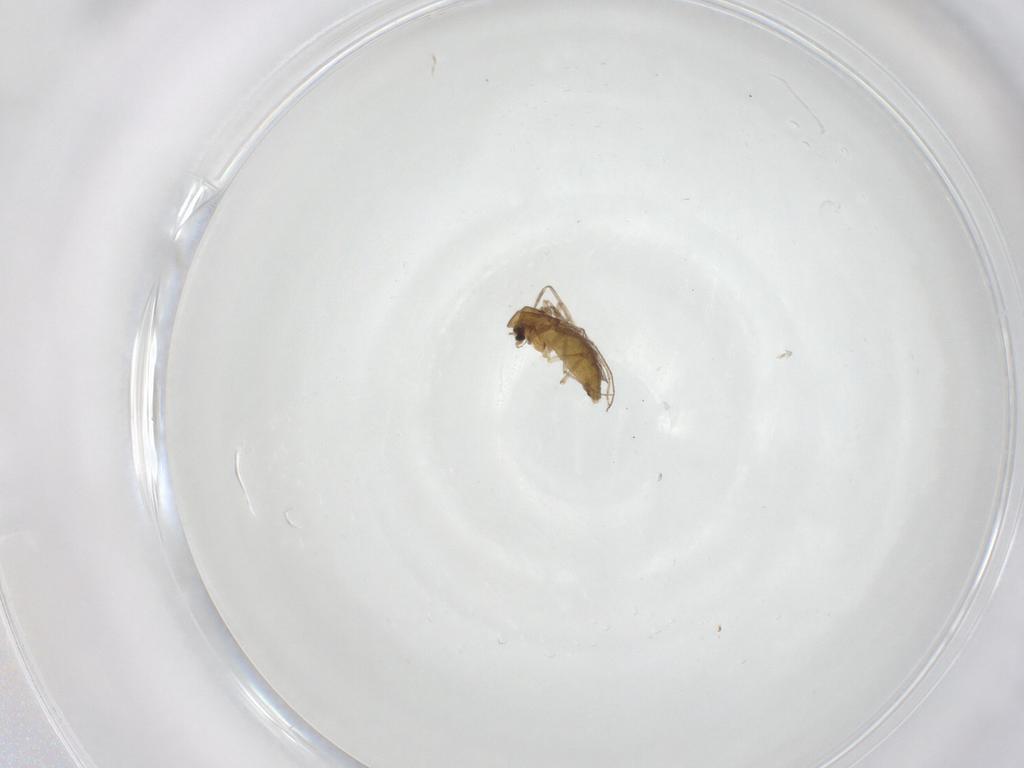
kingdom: Animalia
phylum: Arthropoda
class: Insecta
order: Diptera
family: Chironomidae
